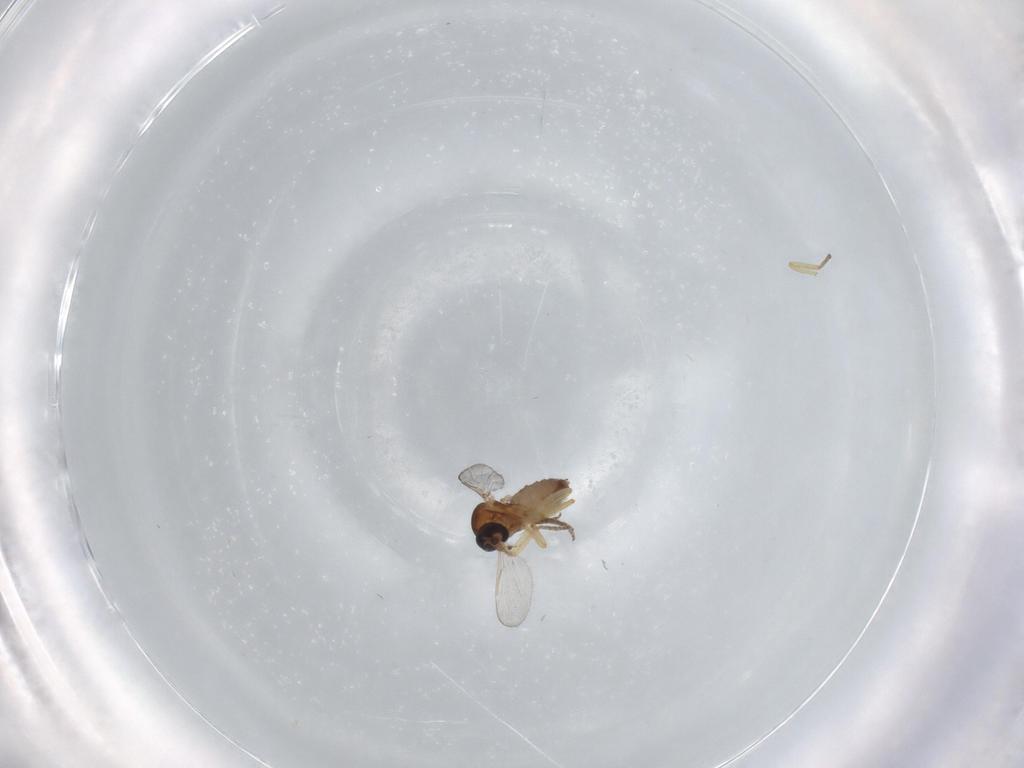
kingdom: Animalia
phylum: Arthropoda
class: Insecta
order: Diptera
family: Ceratopogonidae
